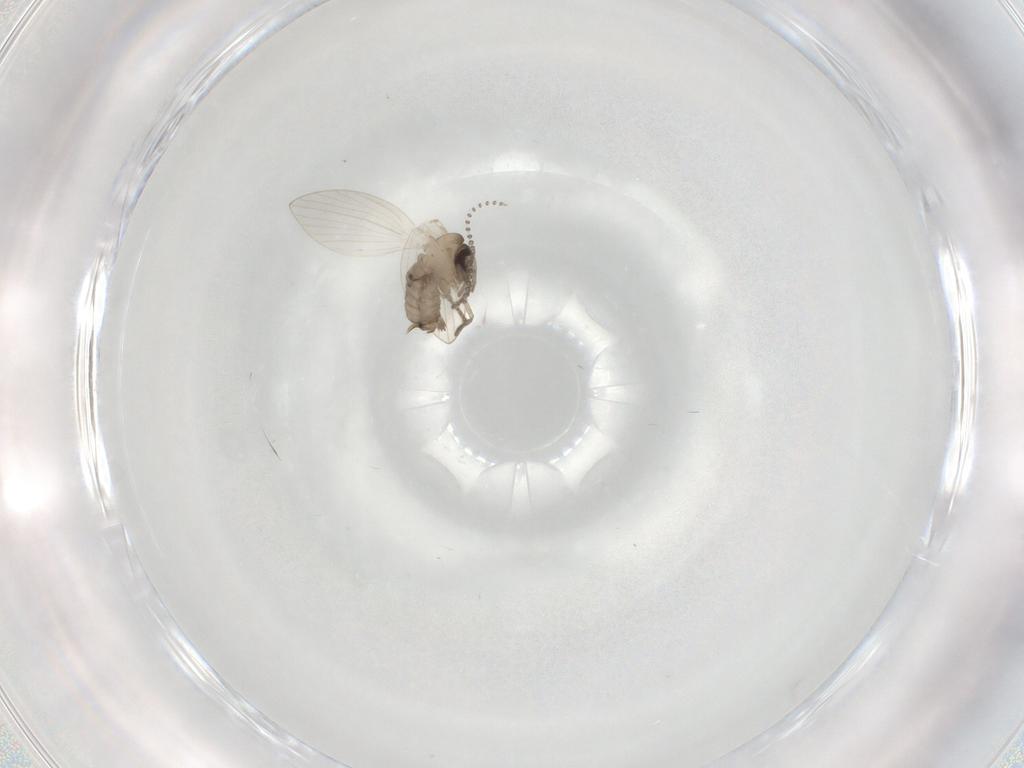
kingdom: Animalia
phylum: Arthropoda
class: Insecta
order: Diptera
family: Psychodidae
